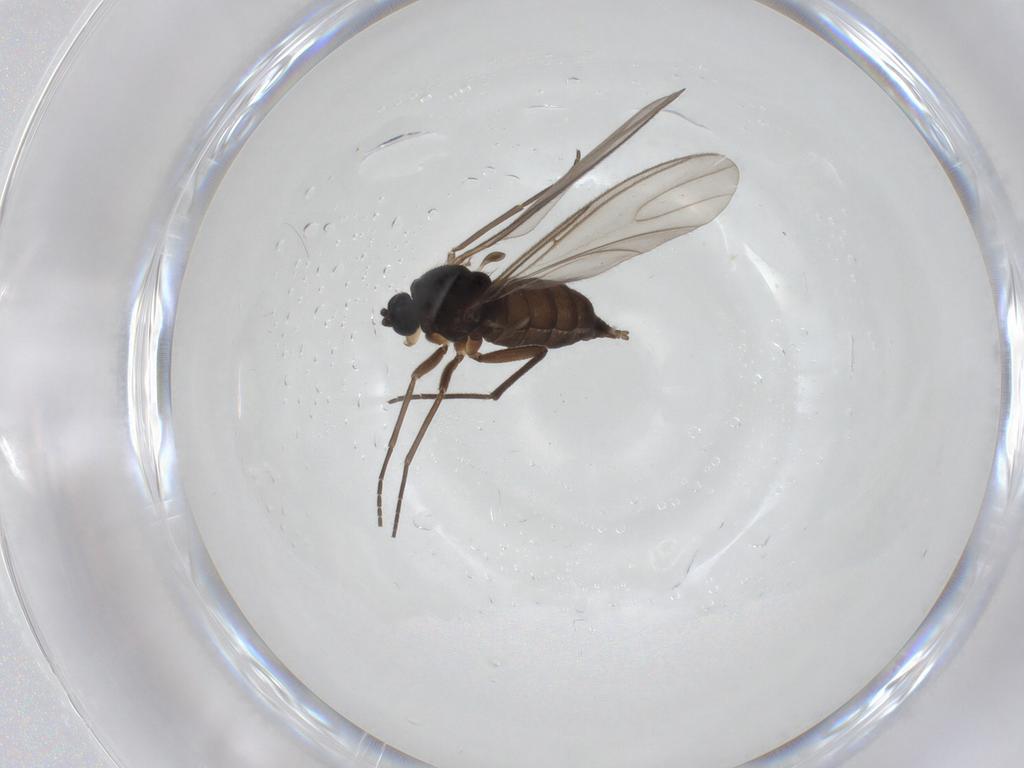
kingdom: Animalia
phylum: Arthropoda
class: Insecta
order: Diptera
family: Sciaridae
